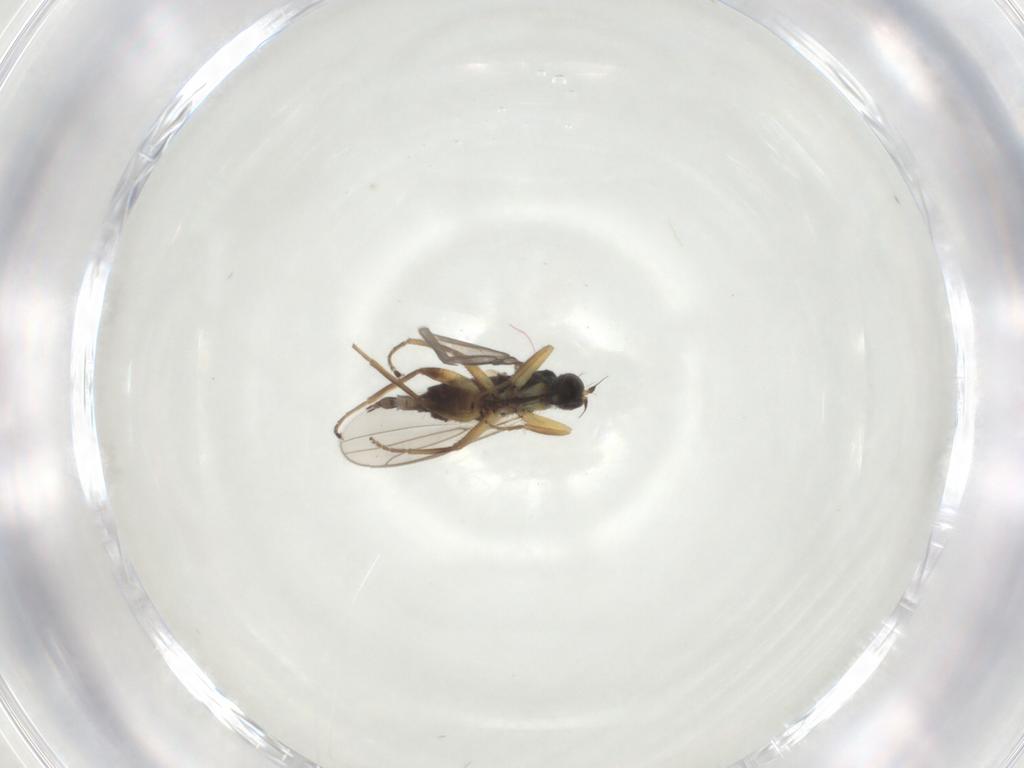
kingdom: Animalia
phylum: Arthropoda
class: Insecta
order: Diptera
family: Hybotidae
